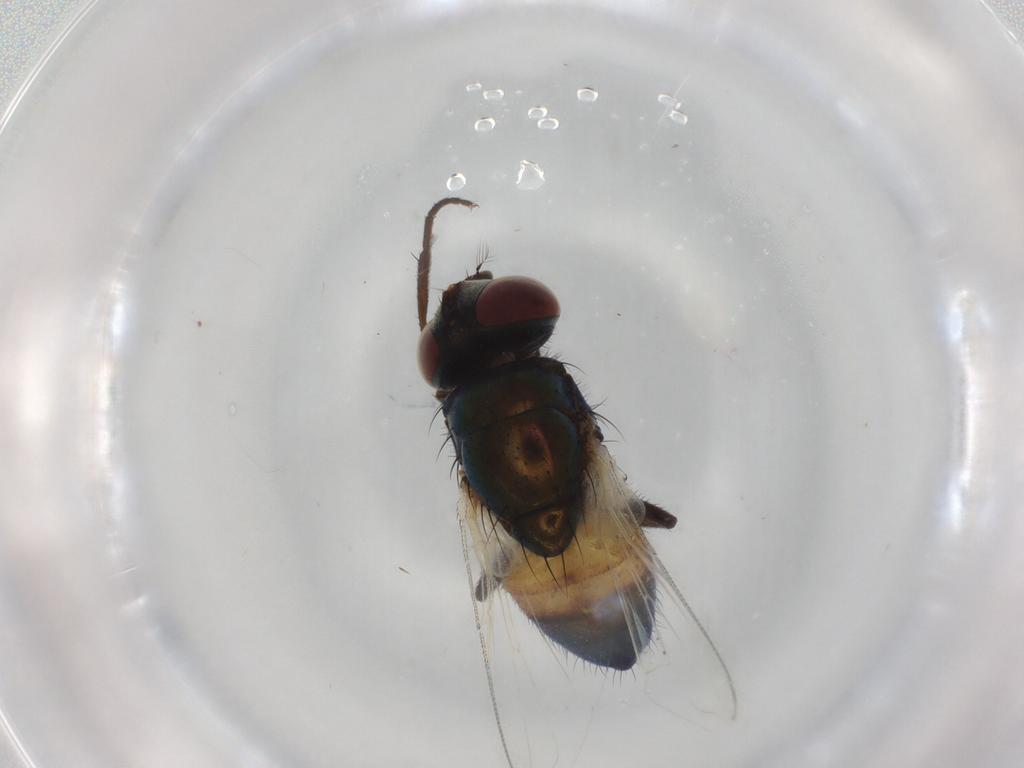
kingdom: Animalia
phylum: Arthropoda
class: Insecta
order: Diptera
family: Muscidae
